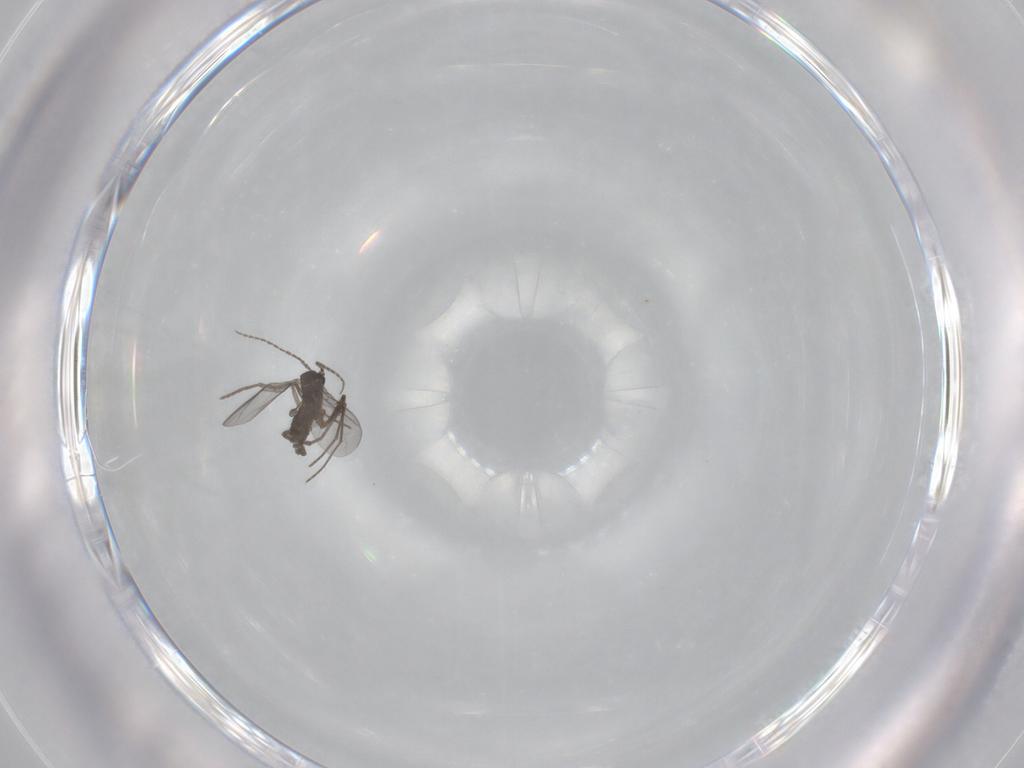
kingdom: Animalia
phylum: Arthropoda
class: Insecta
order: Diptera
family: Sciaridae
